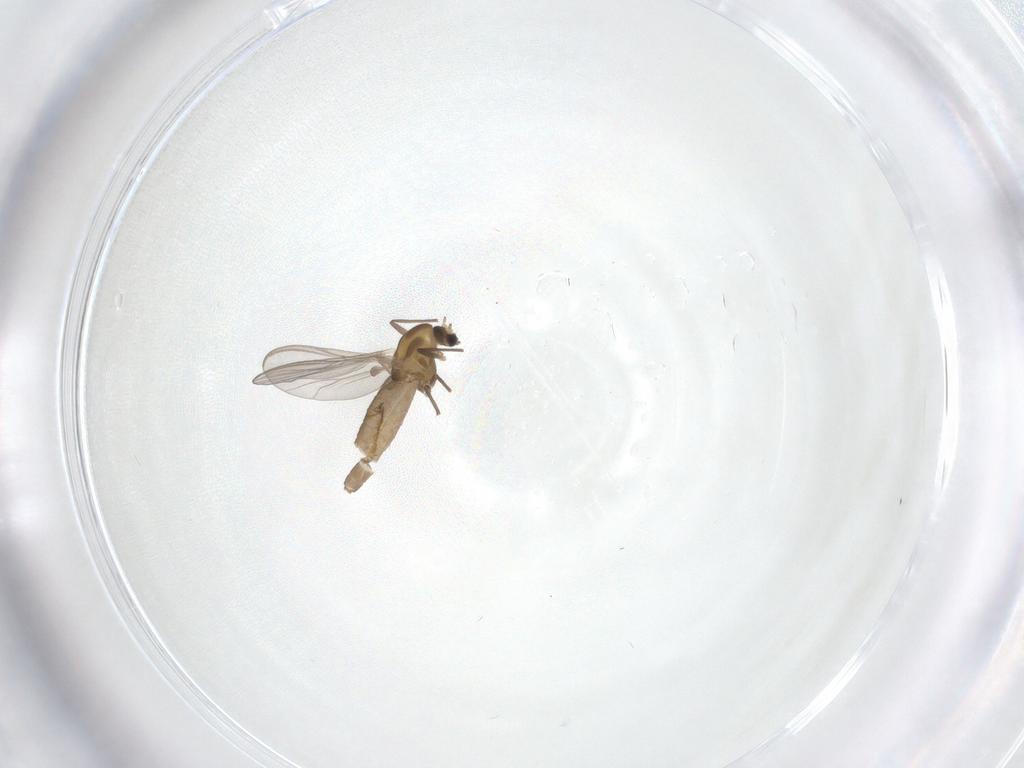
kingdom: Animalia
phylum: Arthropoda
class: Insecta
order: Diptera
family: Chironomidae
